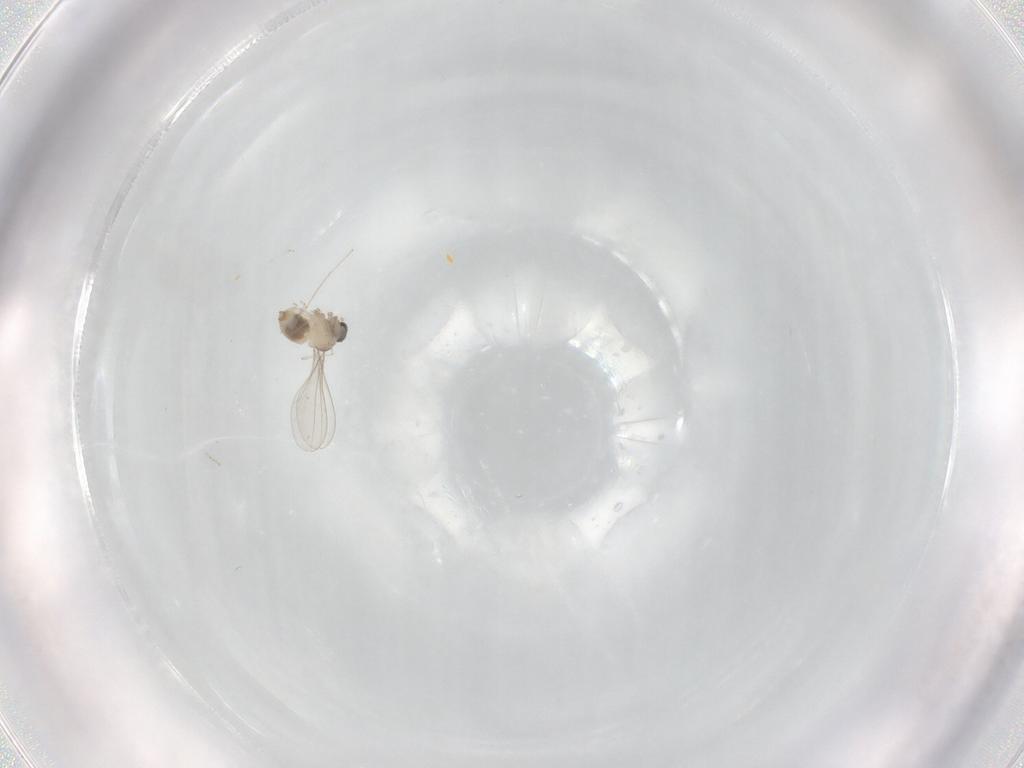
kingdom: Animalia
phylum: Arthropoda
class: Insecta
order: Diptera
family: Cecidomyiidae
